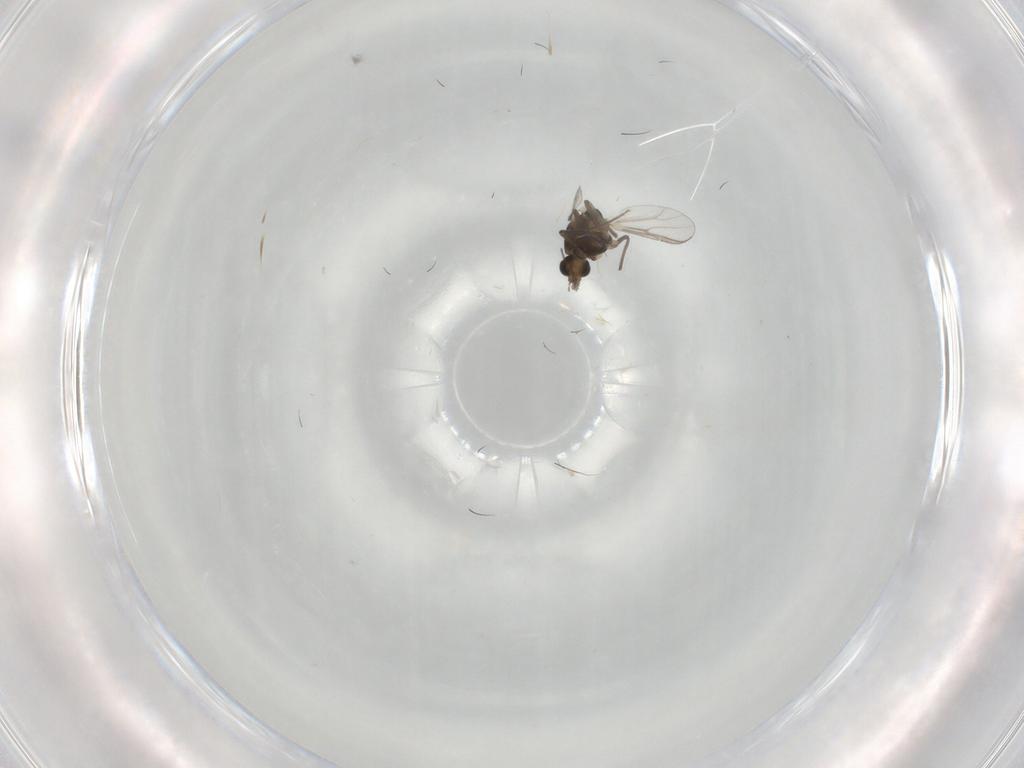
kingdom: Animalia
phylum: Arthropoda
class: Insecta
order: Diptera
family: Chironomidae
